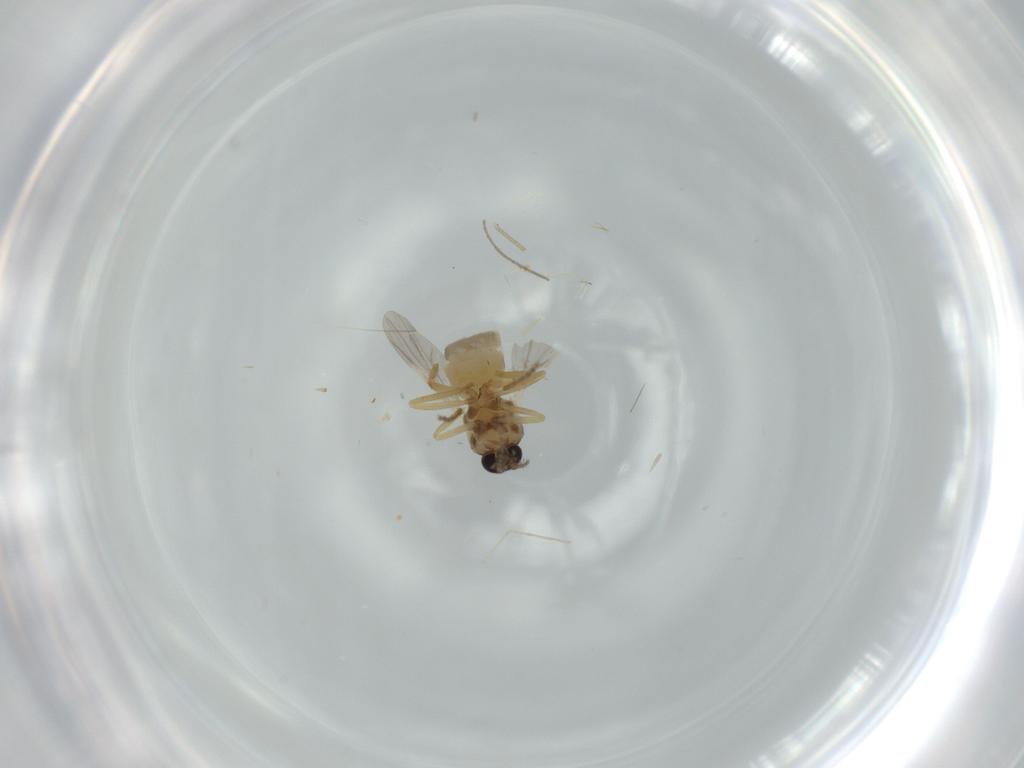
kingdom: Animalia
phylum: Arthropoda
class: Insecta
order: Diptera
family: Ceratopogonidae
